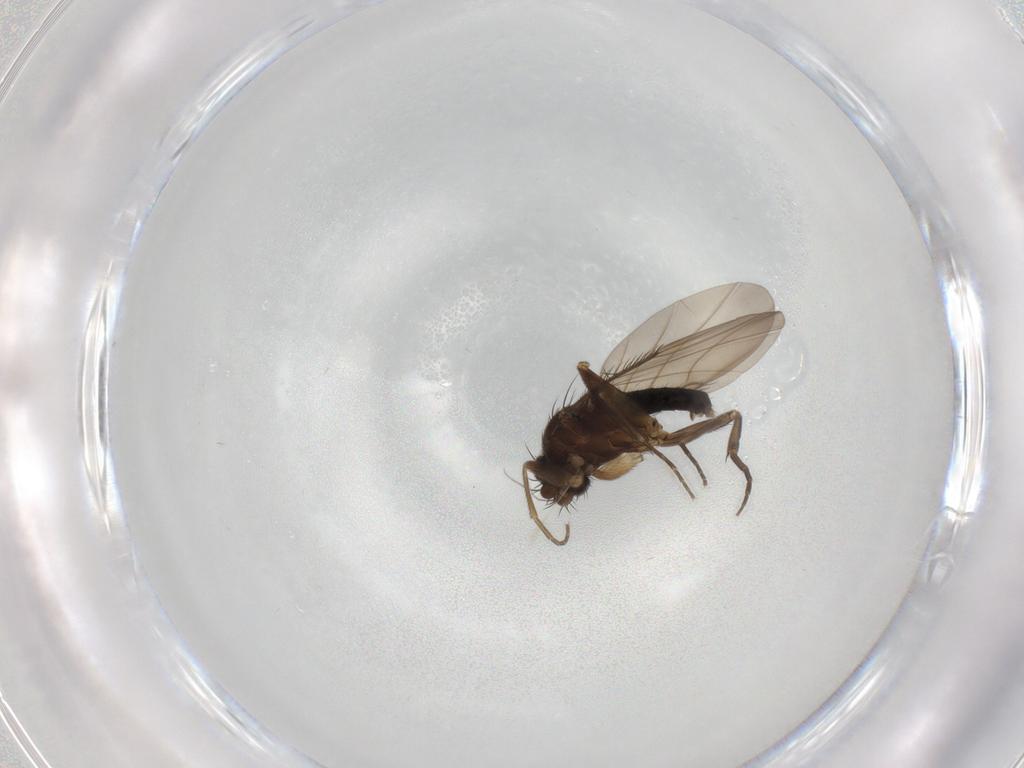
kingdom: Animalia
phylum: Arthropoda
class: Insecta
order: Diptera
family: Phoridae
